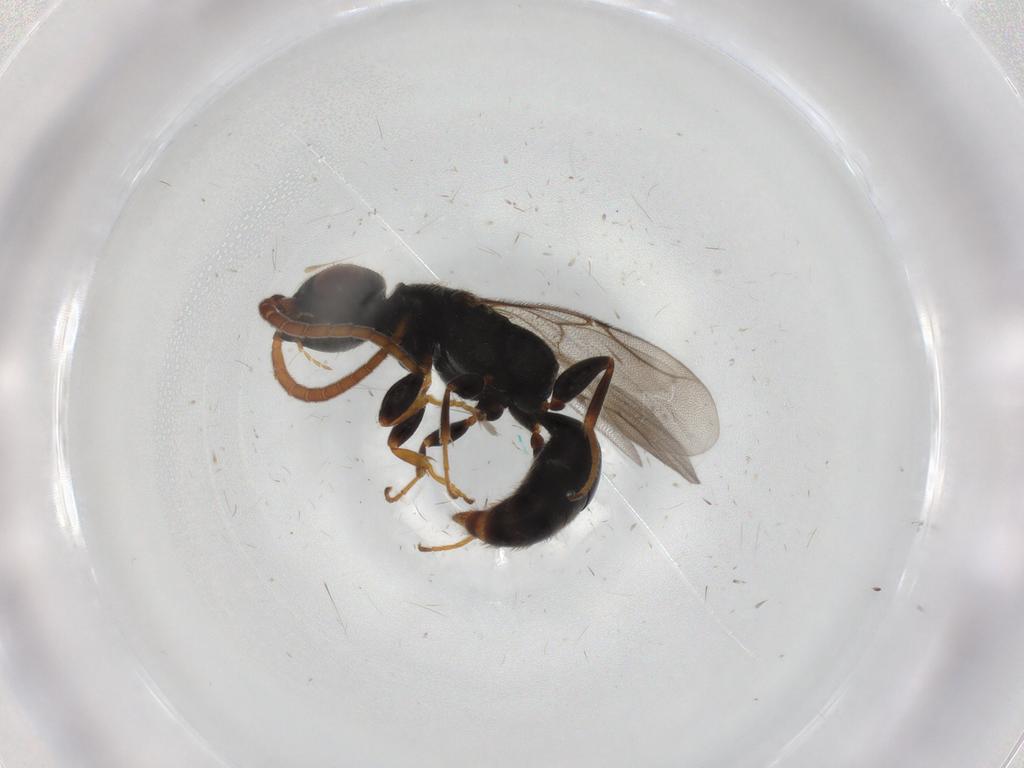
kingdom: Animalia
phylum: Arthropoda
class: Insecta
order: Hymenoptera
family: Bethylidae
